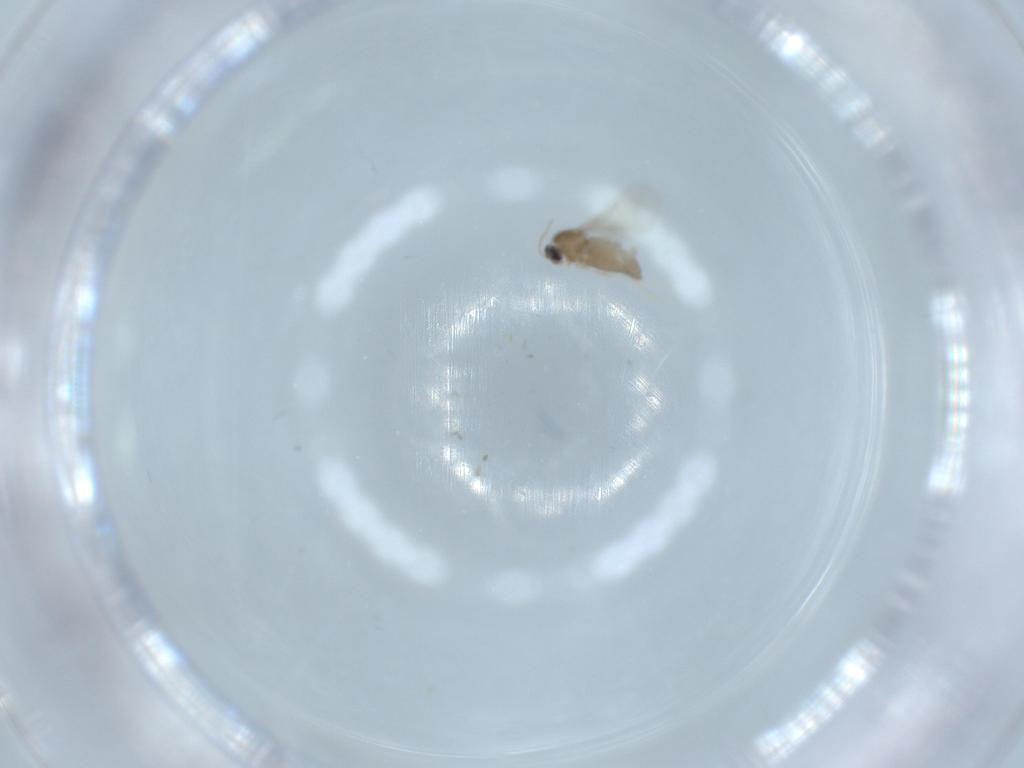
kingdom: Animalia
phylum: Arthropoda
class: Insecta
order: Diptera
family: Cecidomyiidae
